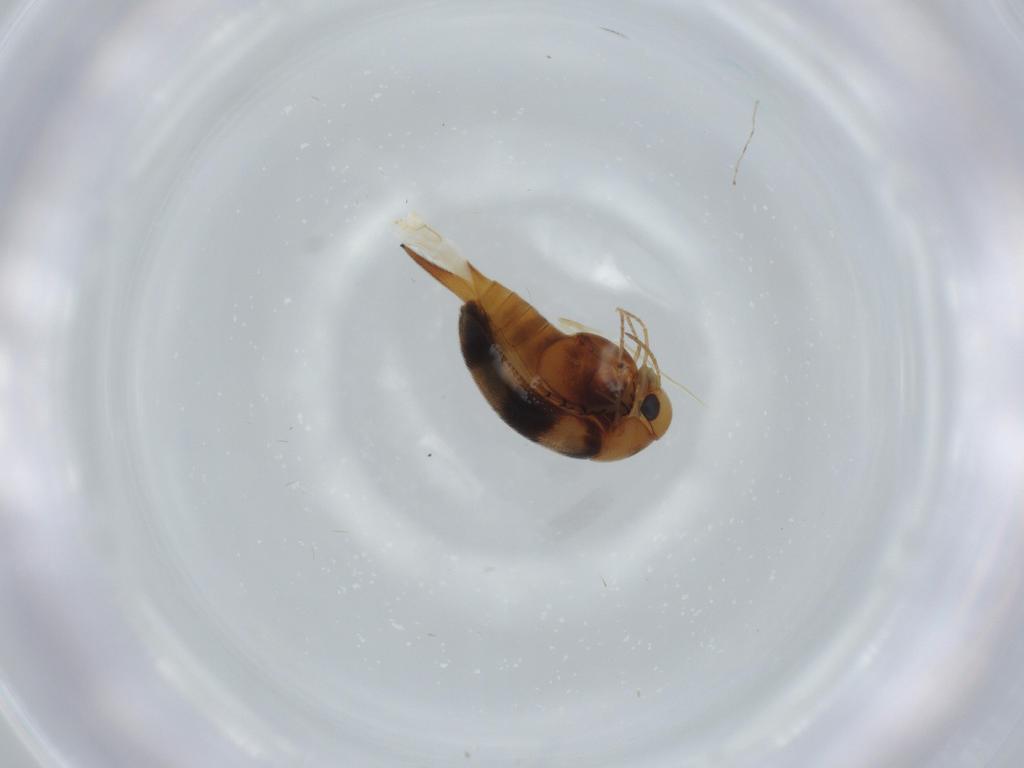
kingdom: Animalia
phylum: Arthropoda
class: Insecta
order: Coleoptera
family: Mordellidae
